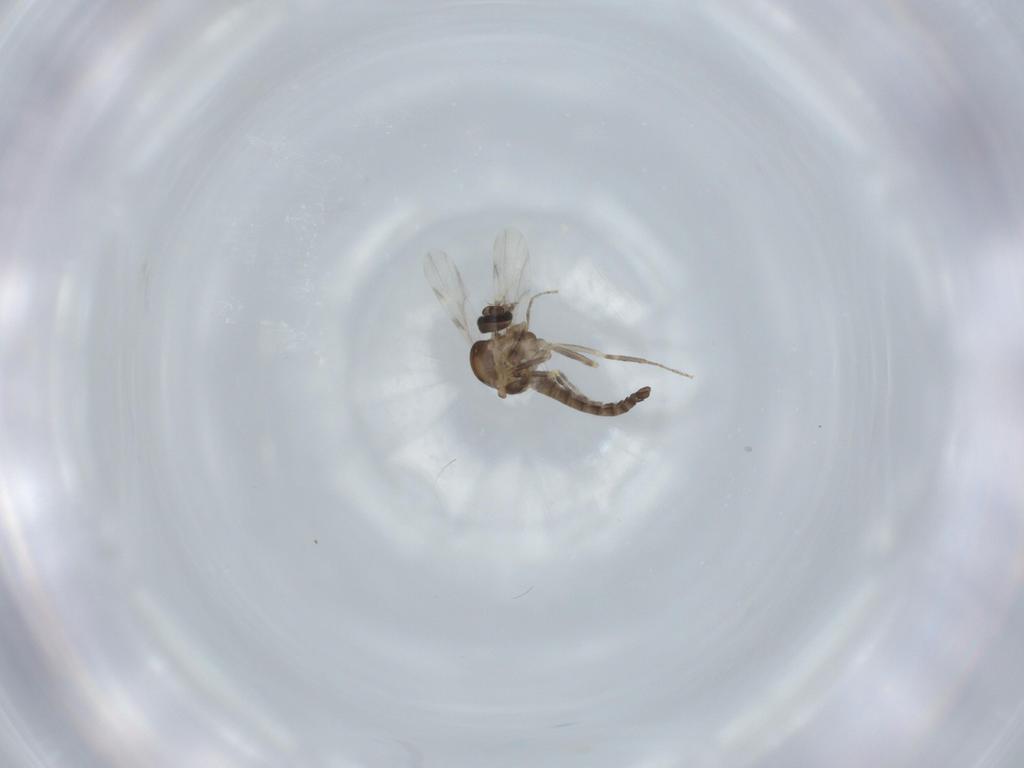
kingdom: Animalia
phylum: Arthropoda
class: Insecta
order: Diptera
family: Ceratopogonidae
